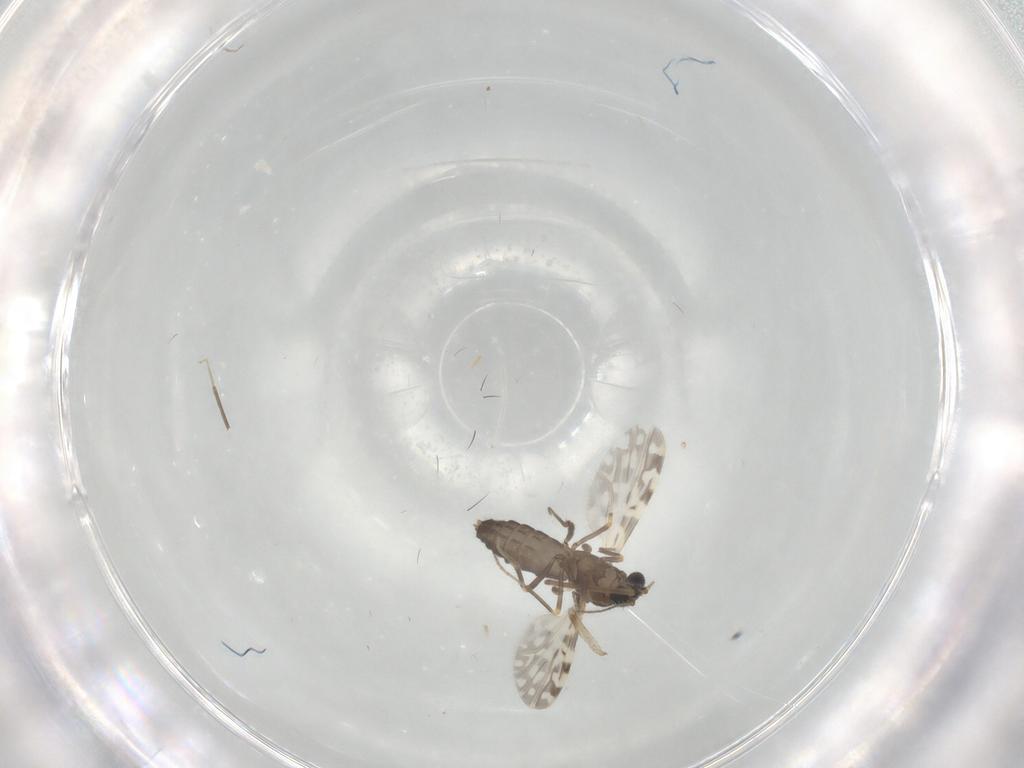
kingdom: Animalia
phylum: Arthropoda
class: Insecta
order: Diptera
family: Ceratopogonidae
